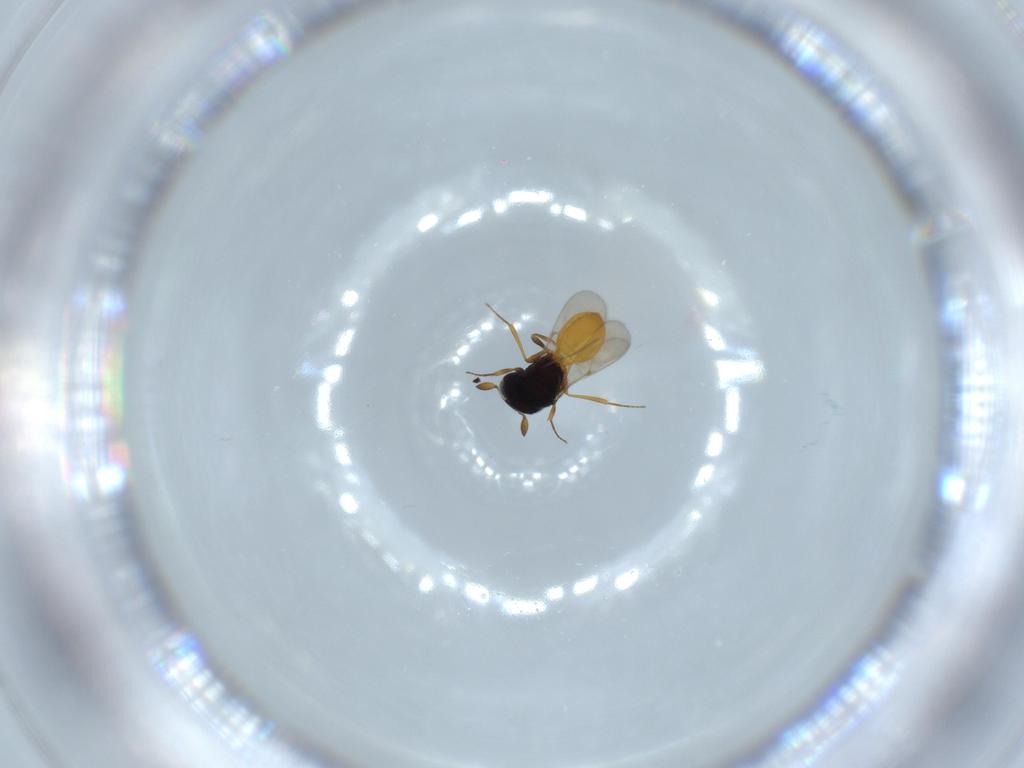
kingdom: Animalia
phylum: Arthropoda
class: Insecta
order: Hymenoptera
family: Scelionidae
